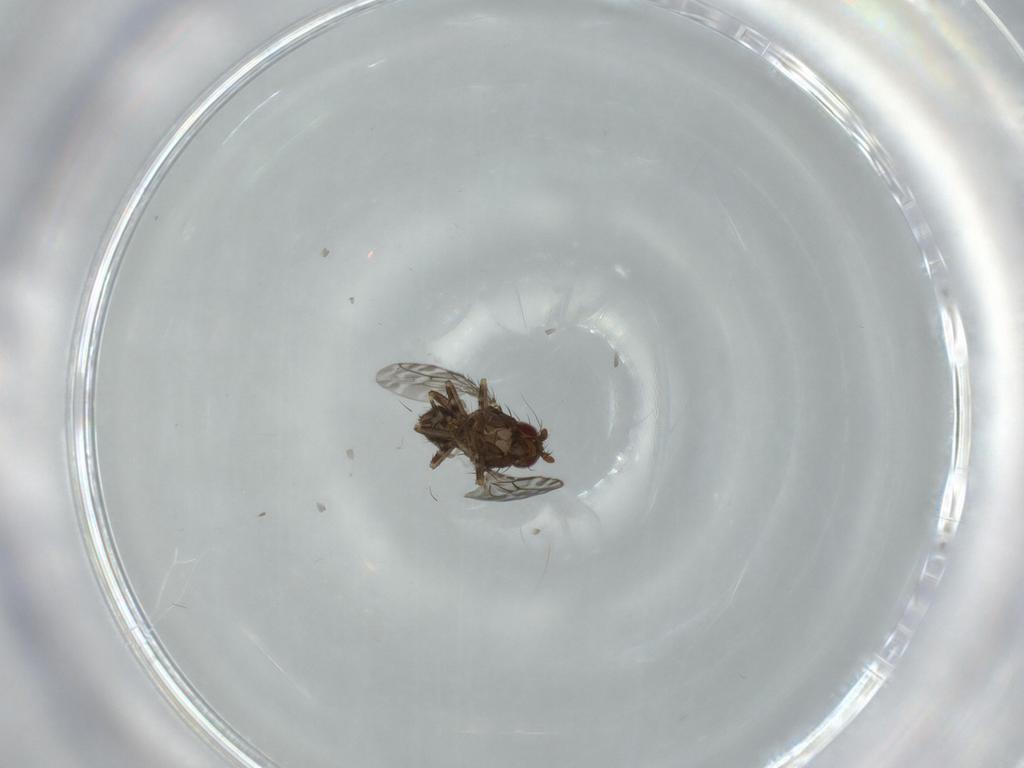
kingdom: Animalia
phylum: Arthropoda
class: Insecta
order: Diptera
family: Sphaeroceridae
